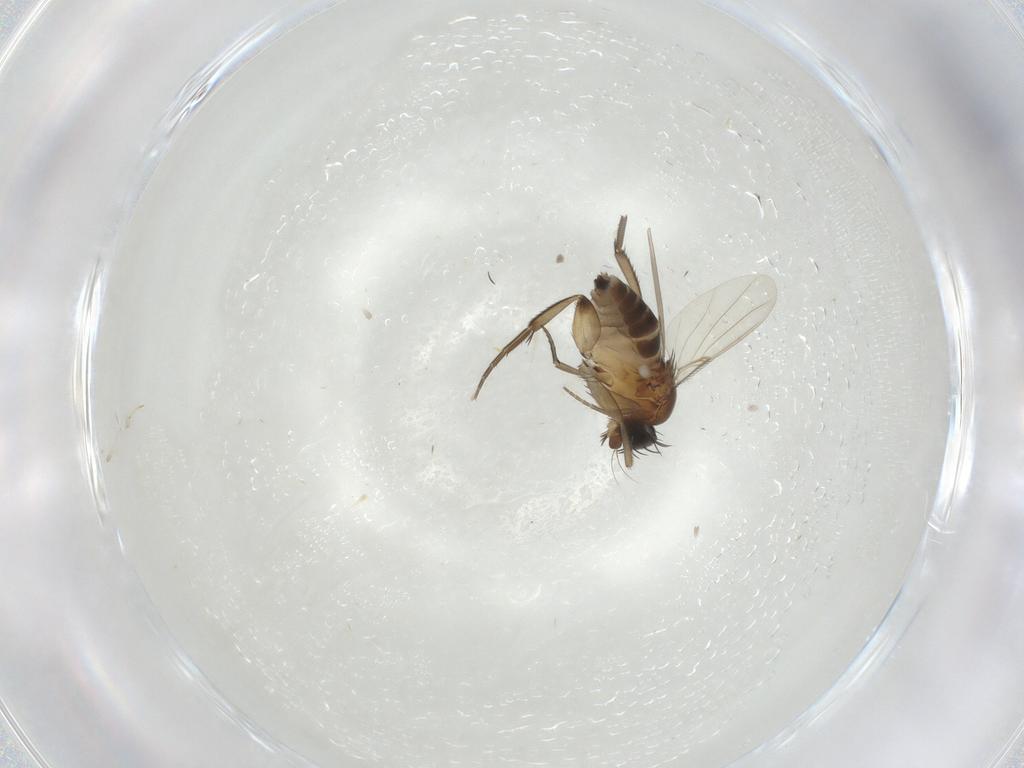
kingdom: Animalia
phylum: Arthropoda
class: Insecta
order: Diptera
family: Phoridae
